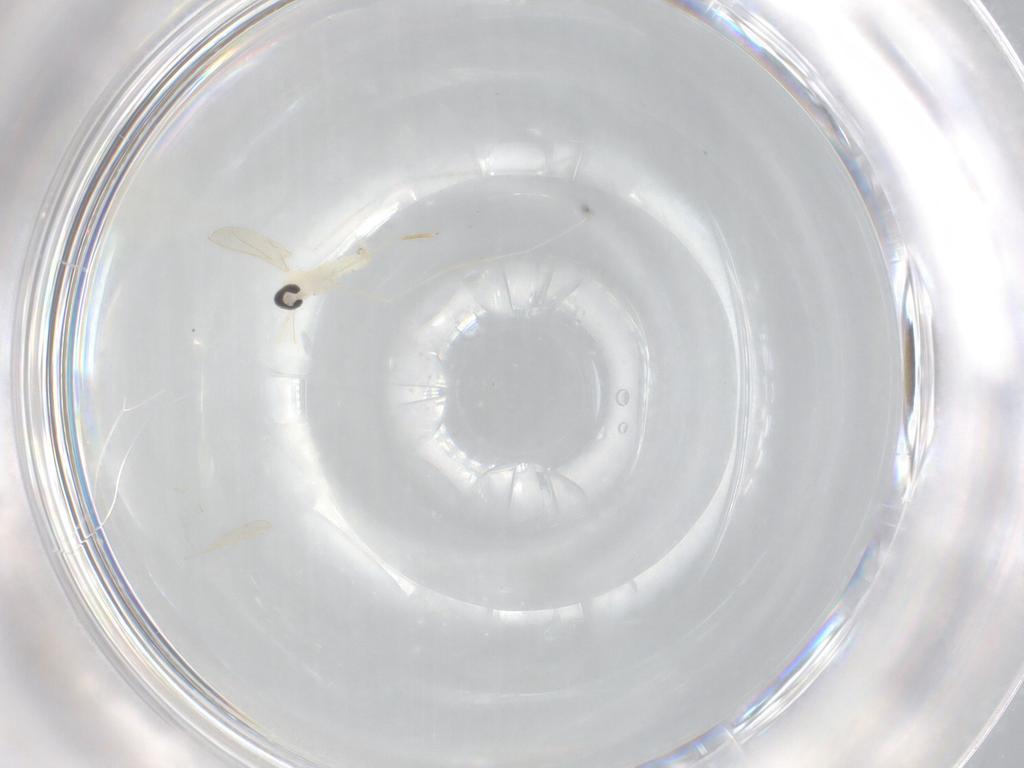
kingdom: Animalia
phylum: Arthropoda
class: Insecta
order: Diptera
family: Cecidomyiidae
